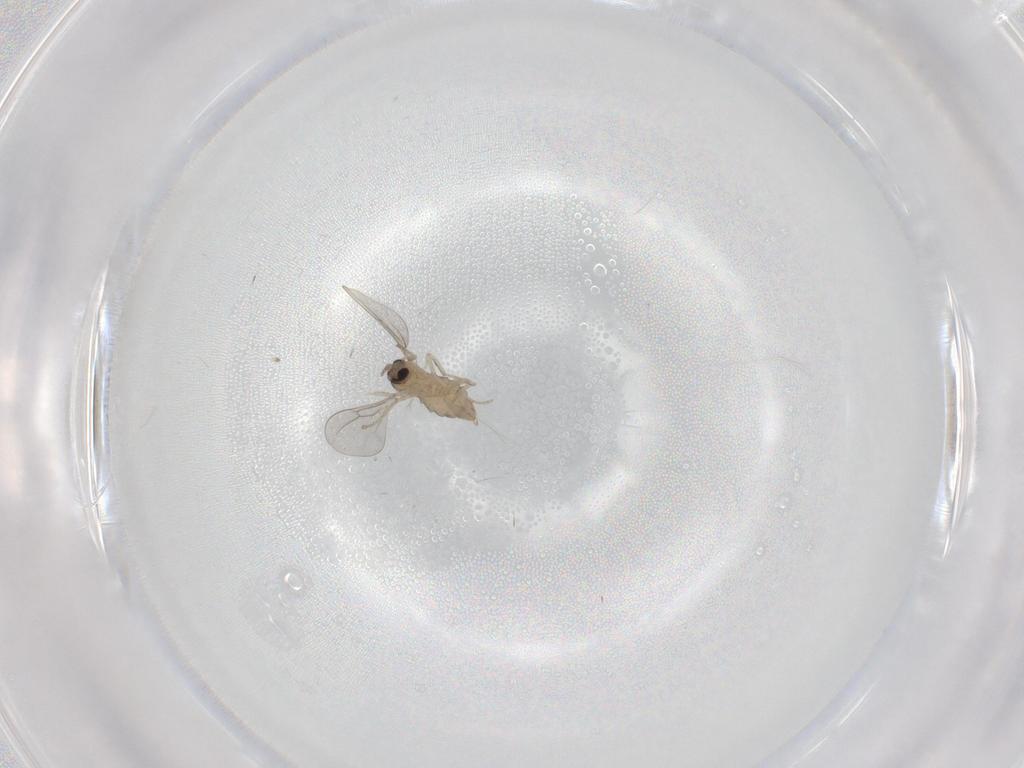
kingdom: Animalia
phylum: Arthropoda
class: Insecta
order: Diptera
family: Cecidomyiidae
